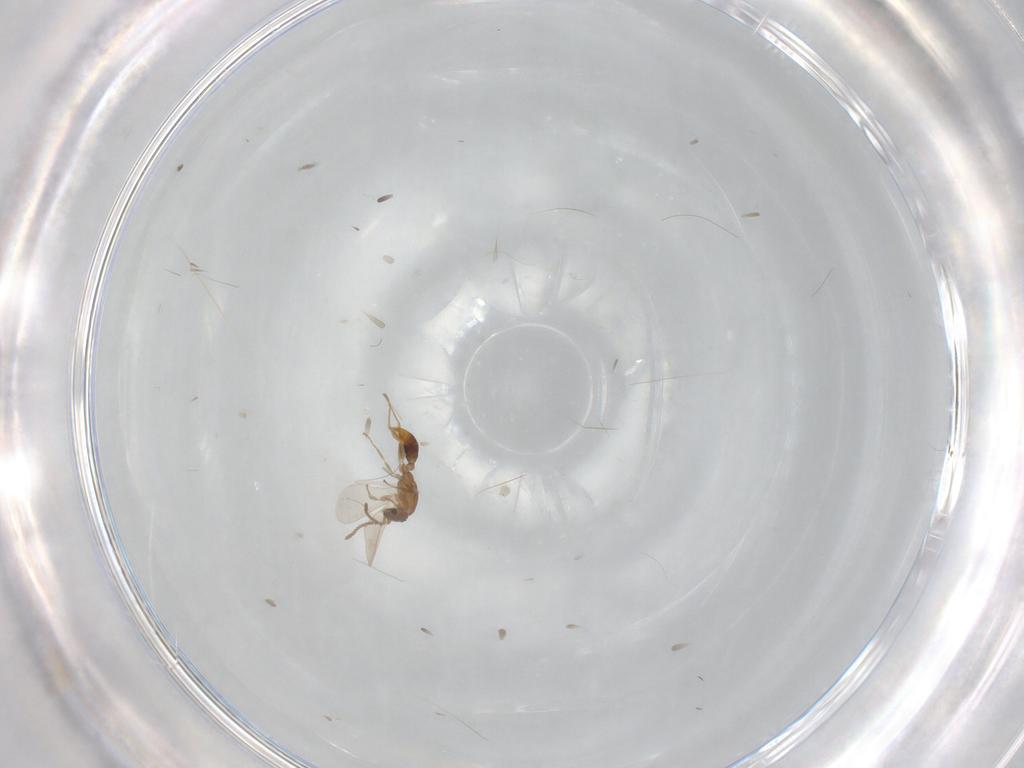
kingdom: Animalia
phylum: Arthropoda
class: Insecta
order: Hymenoptera
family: Formicidae
